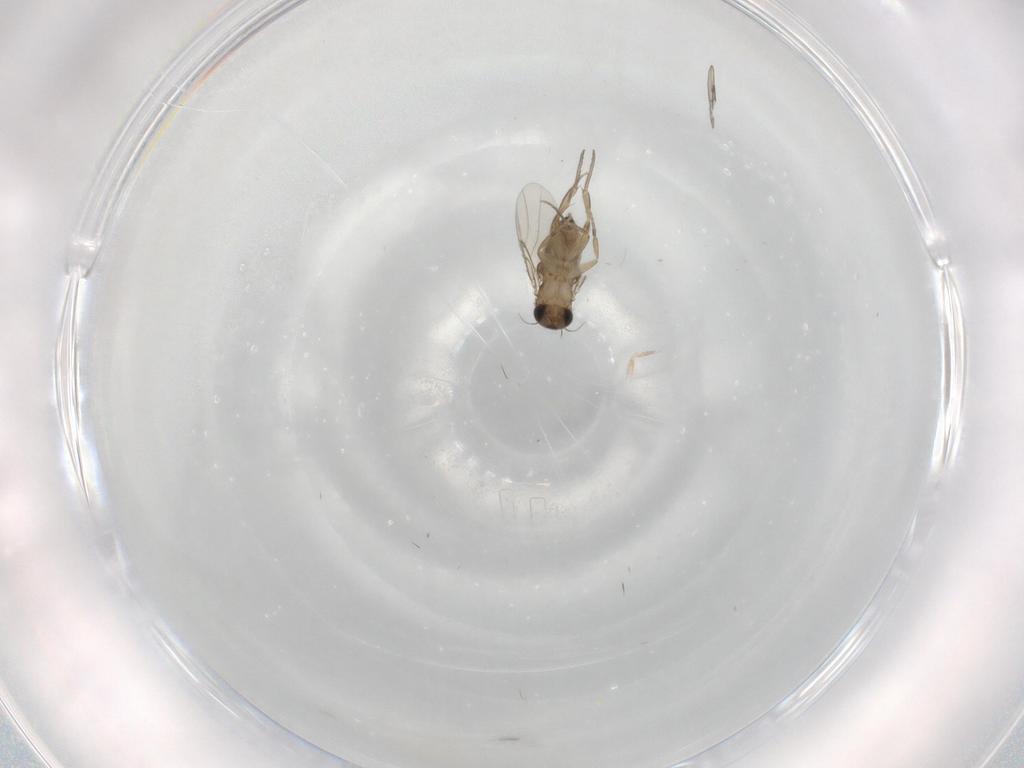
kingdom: Animalia
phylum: Arthropoda
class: Insecta
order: Diptera
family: Phoridae
